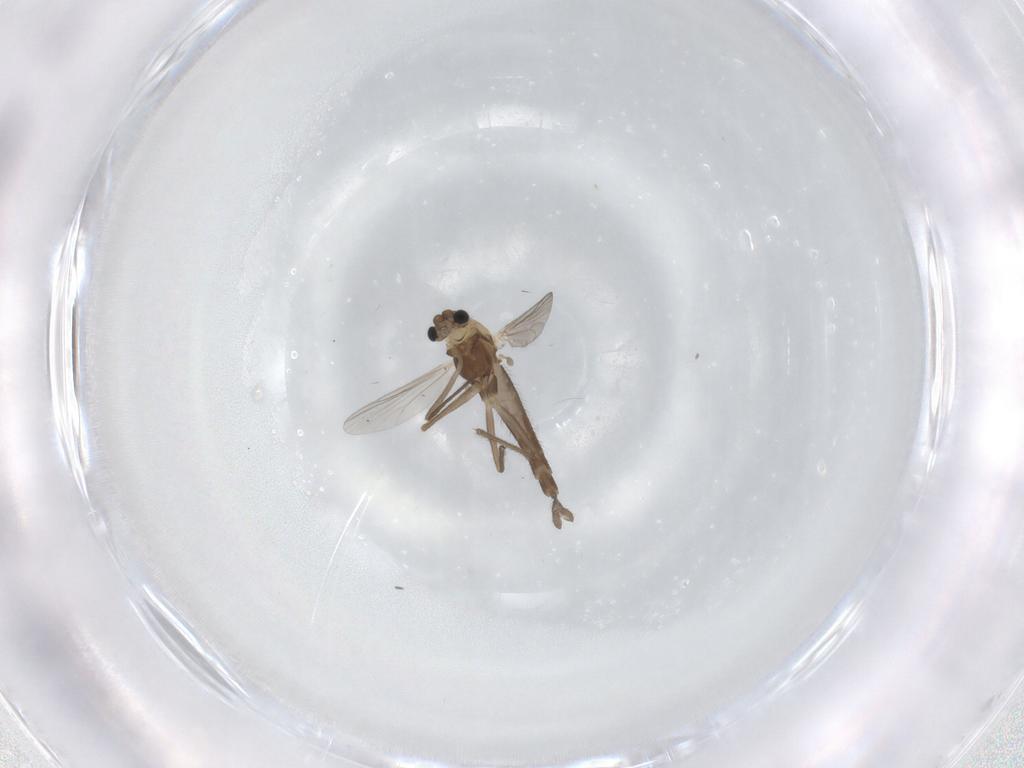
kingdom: Animalia
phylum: Arthropoda
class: Insecta
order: Diptera
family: Chironomidae
